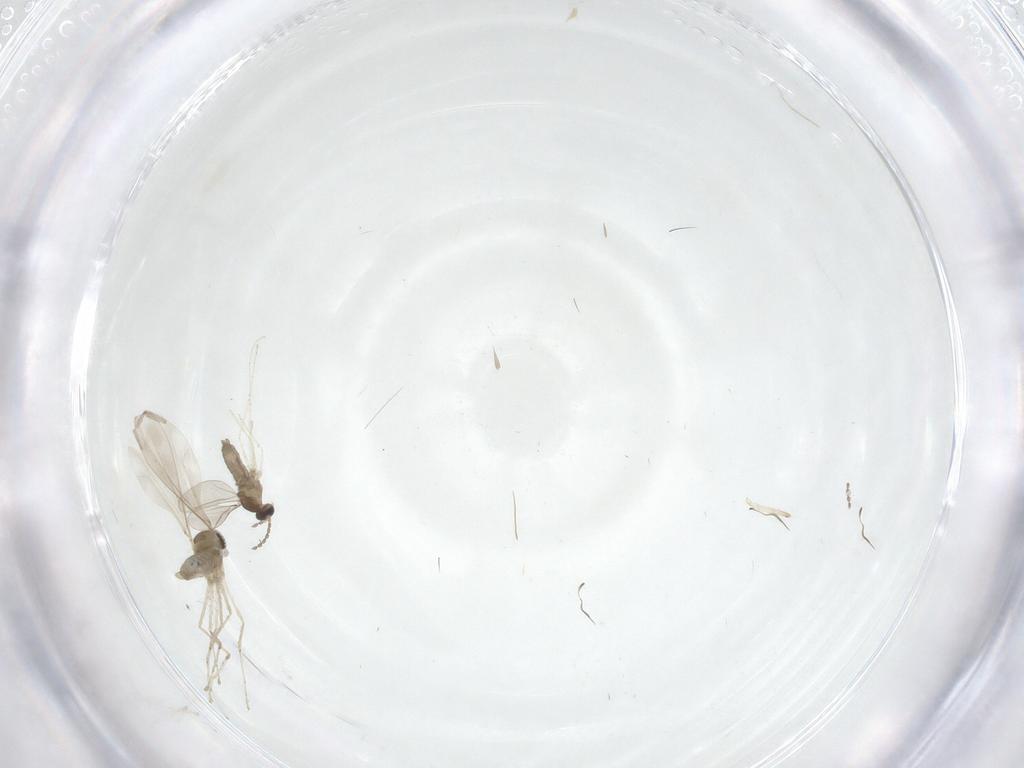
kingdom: Animalia
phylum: Arthropoda
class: Insecta
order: Diptera
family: Cecidomyiidae
